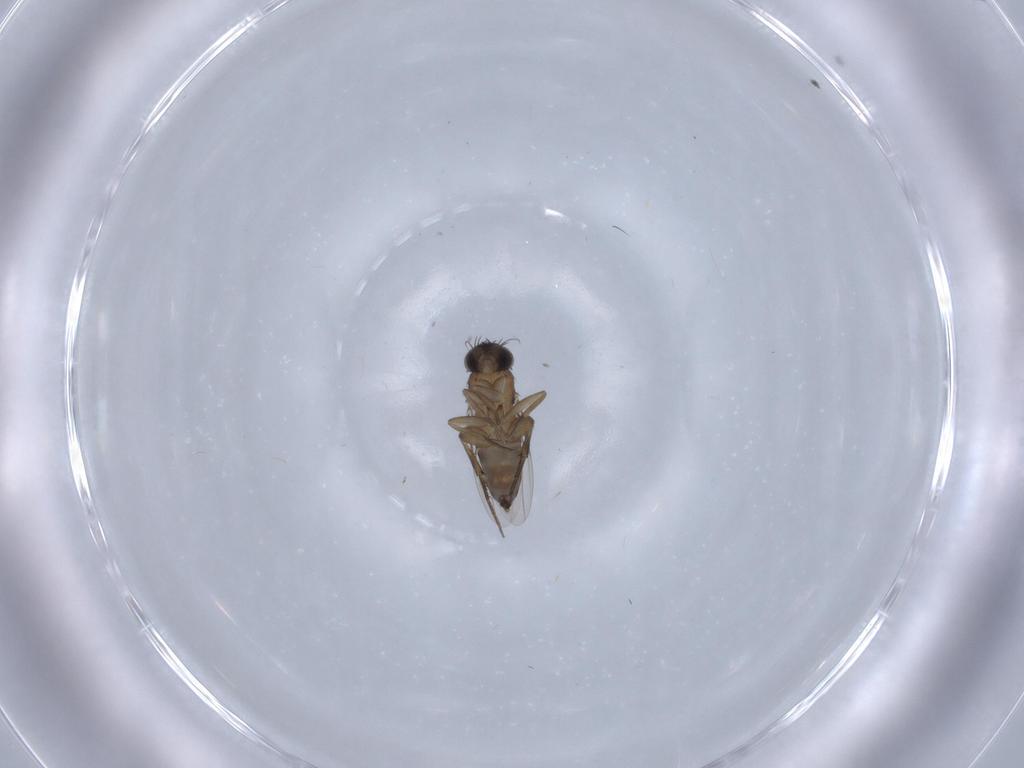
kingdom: Animalia
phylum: Arthropoda
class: Insecta
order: Diptera
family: Phoridae
